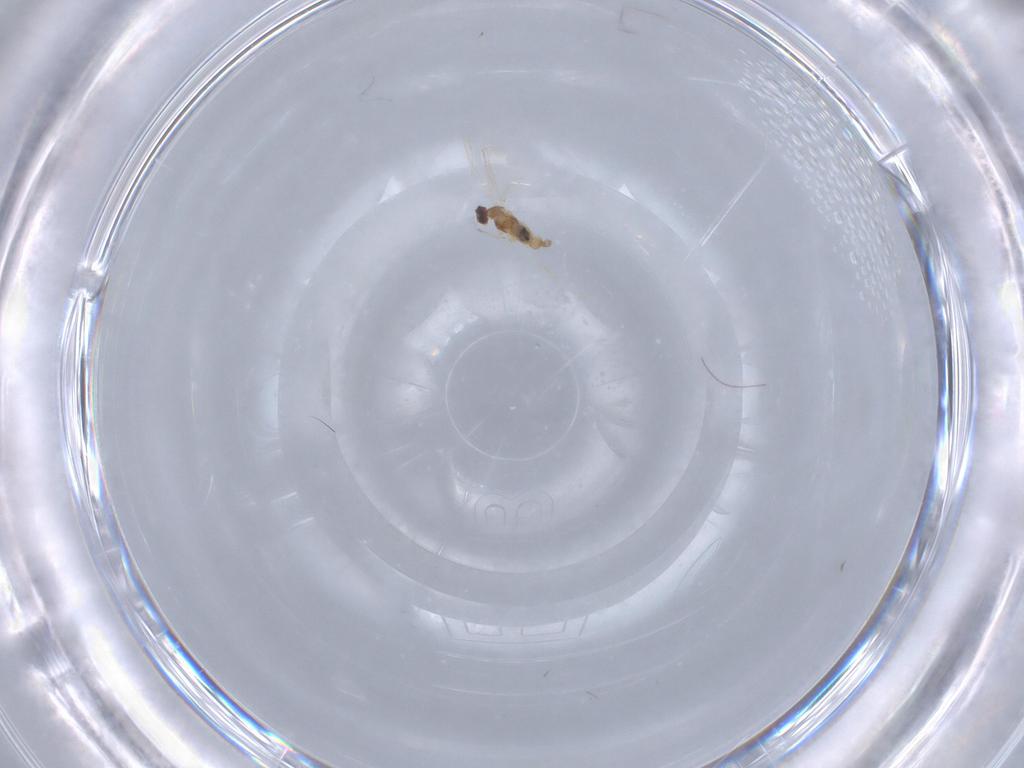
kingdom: Animalia
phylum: Arthropoda
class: Insecta
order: Diptera
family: Cecidomyiidae
